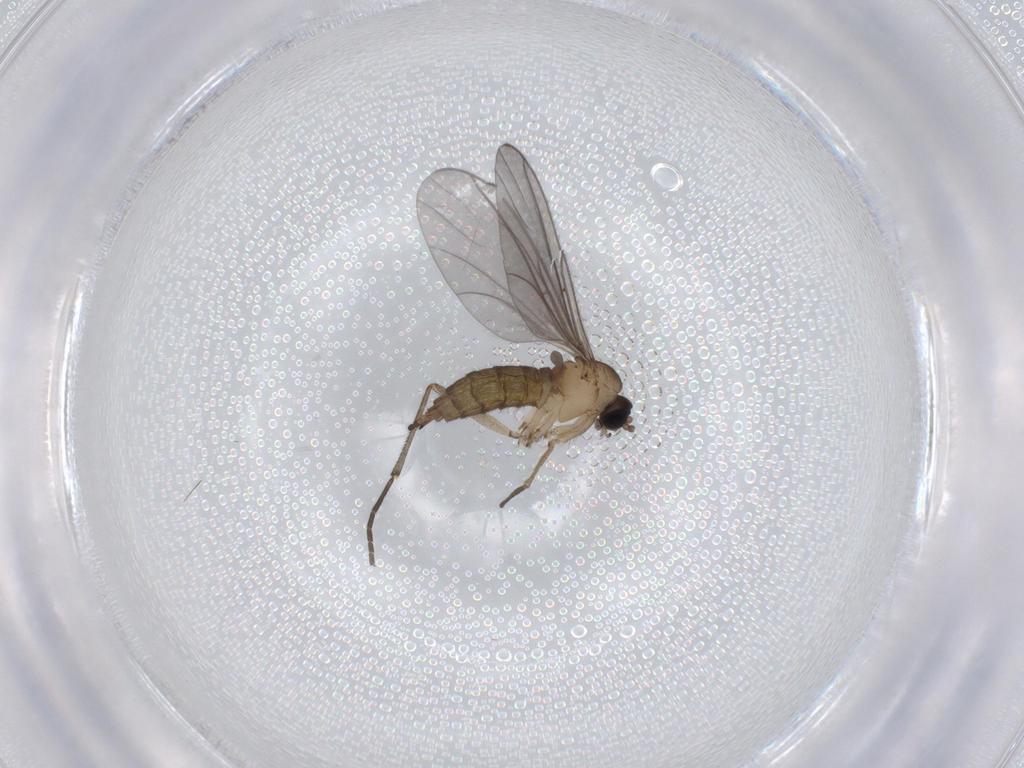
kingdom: Animalia
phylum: Arthropoda
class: Insecta
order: Diptera
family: Sciaridae
